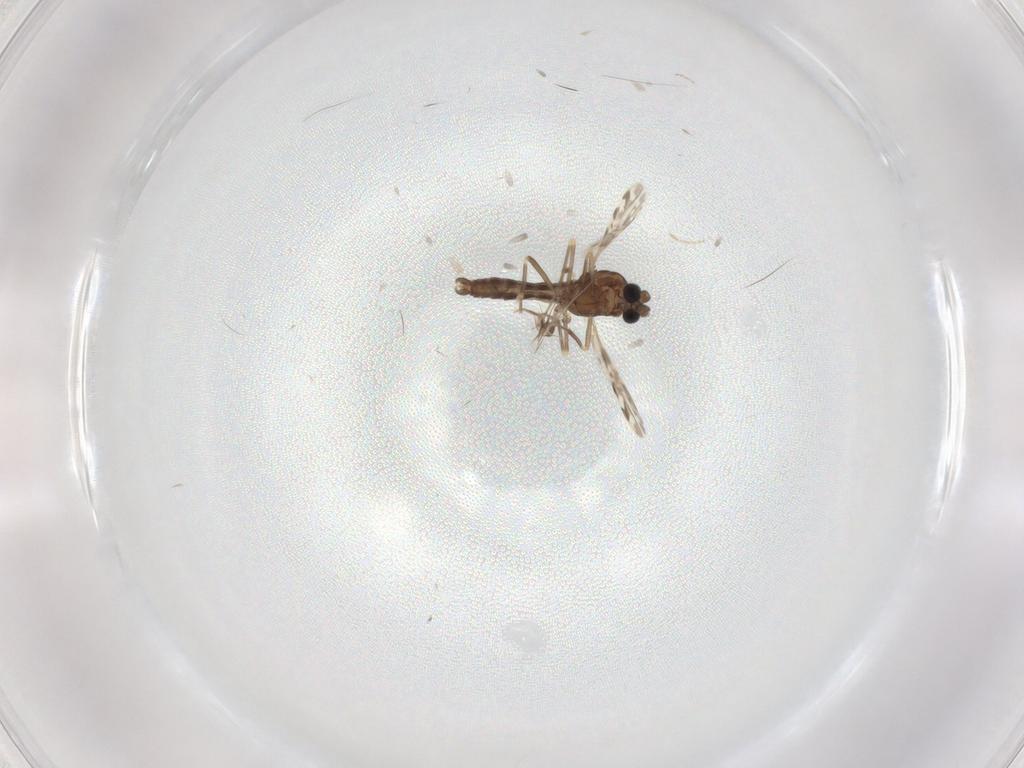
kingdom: Animalia
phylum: Arthropoda
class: Insecta
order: Diptera
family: Ceratopogonidae
